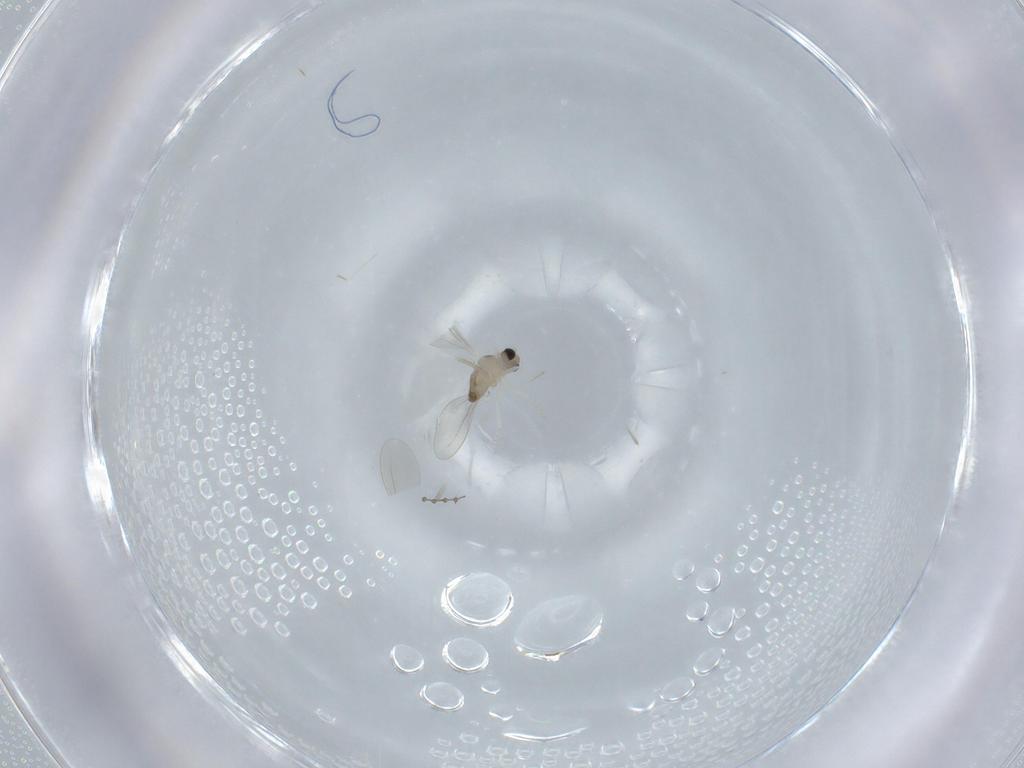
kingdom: Animalia
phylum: Arthropoda
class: Insecta
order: Diptera
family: Cecidomyiidae
